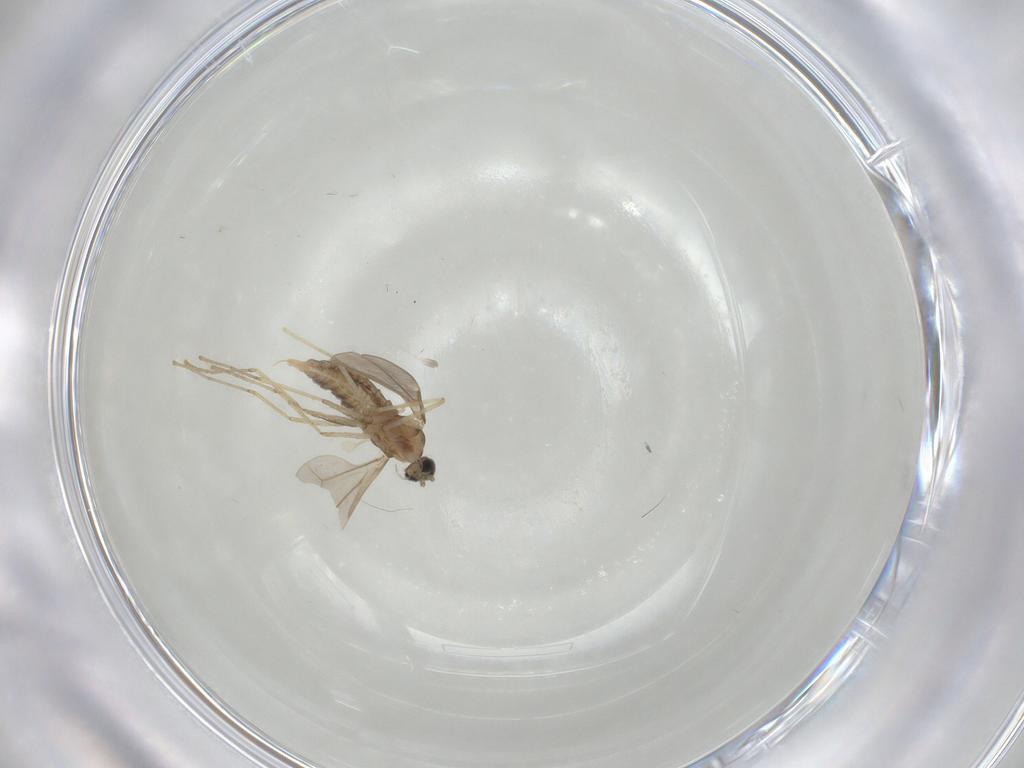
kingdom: Animalia
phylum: Arthropoda
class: Insecta
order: Diptera
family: Cecidomyiidae
